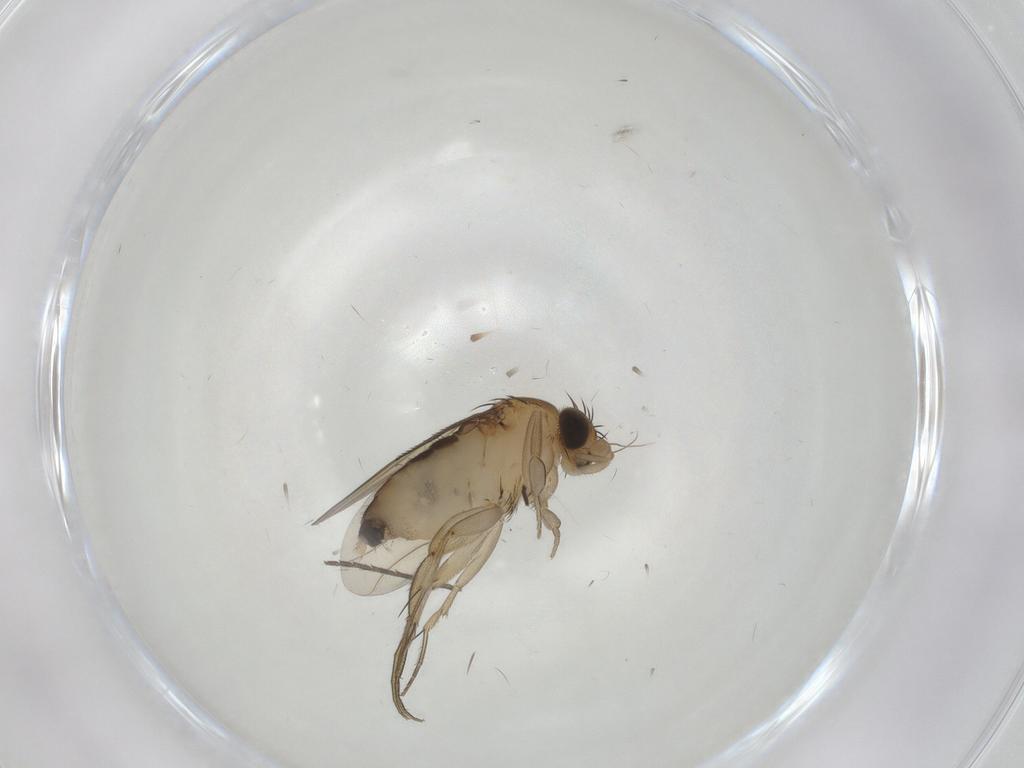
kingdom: Animalia
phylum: Arthropoda
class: Insecta
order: Diptera
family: Phoridae
